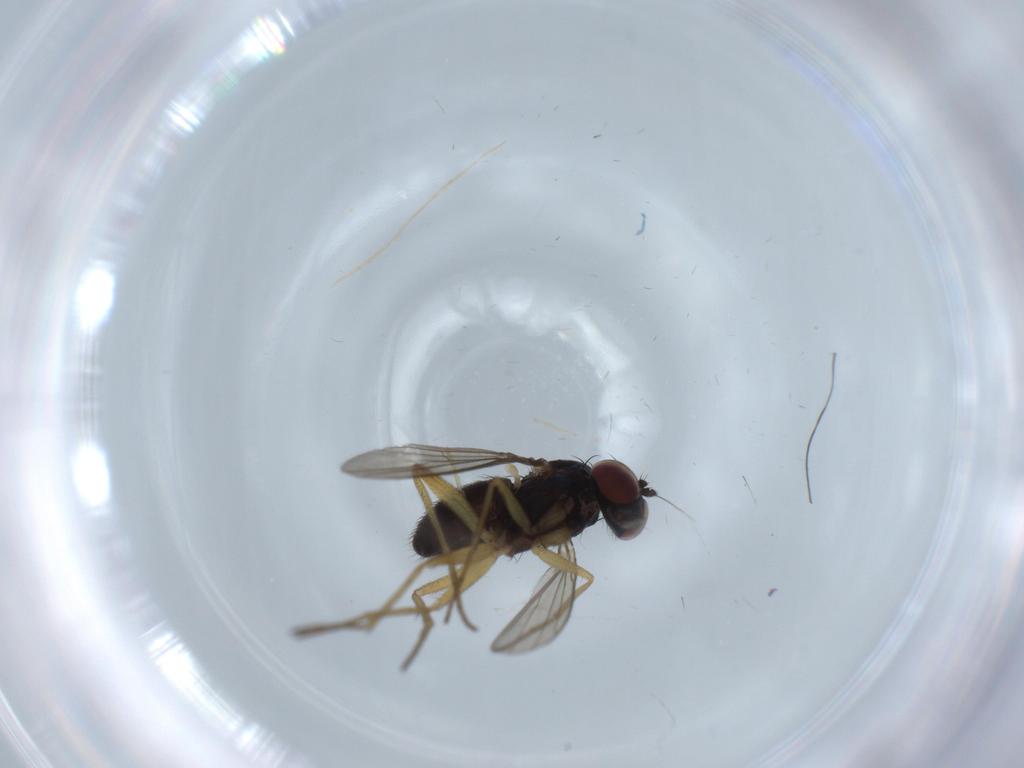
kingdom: Animalia
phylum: Arthropoda
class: Insecta
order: Diptera
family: Dolichopodidae
